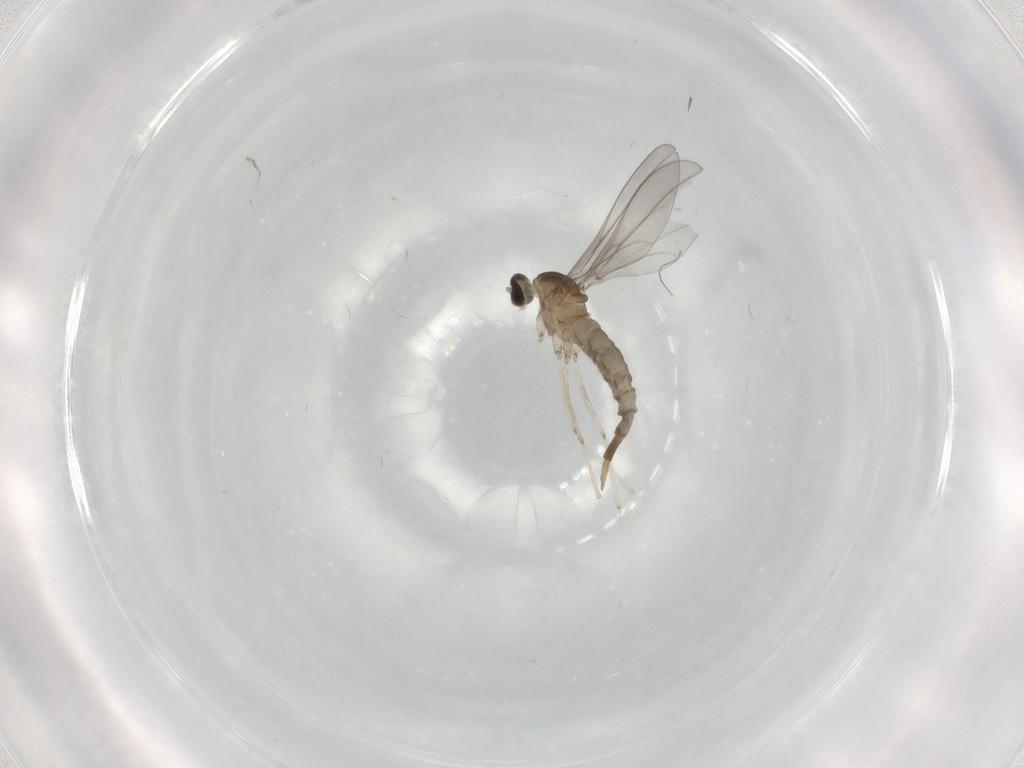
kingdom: Animalia
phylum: Arthropoda
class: Insecta
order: Diptera
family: Cecidomyiidae
